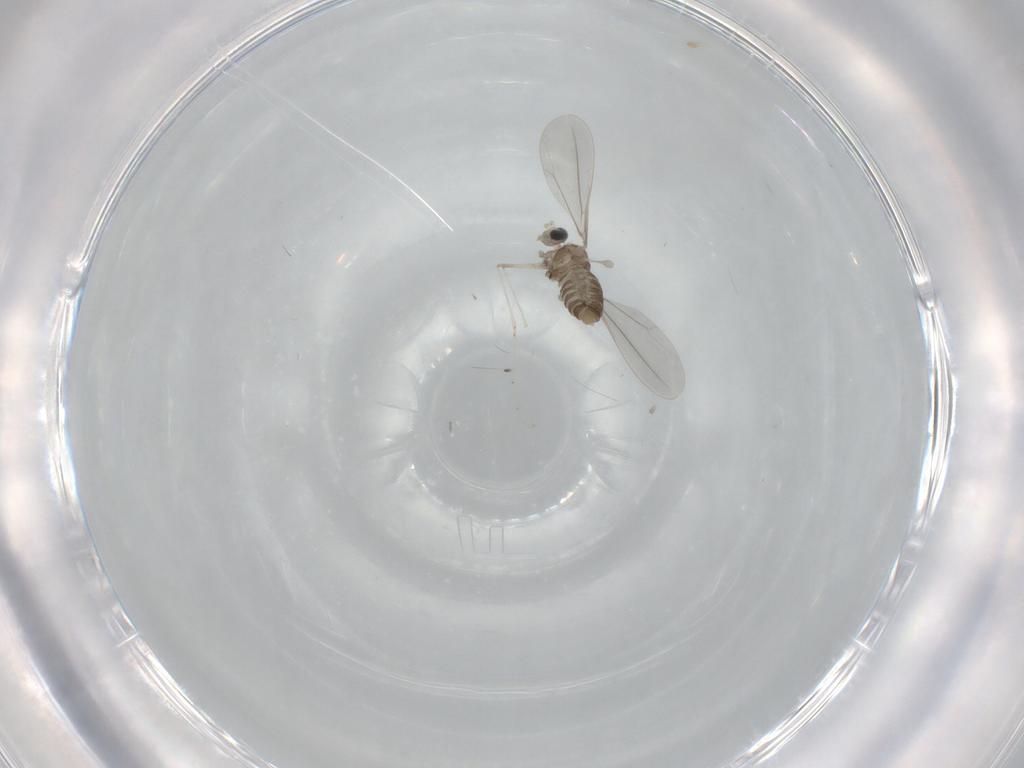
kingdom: Animalia
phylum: Arthropoda
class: Insecta
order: Diptera
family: Cecidomyiidae
